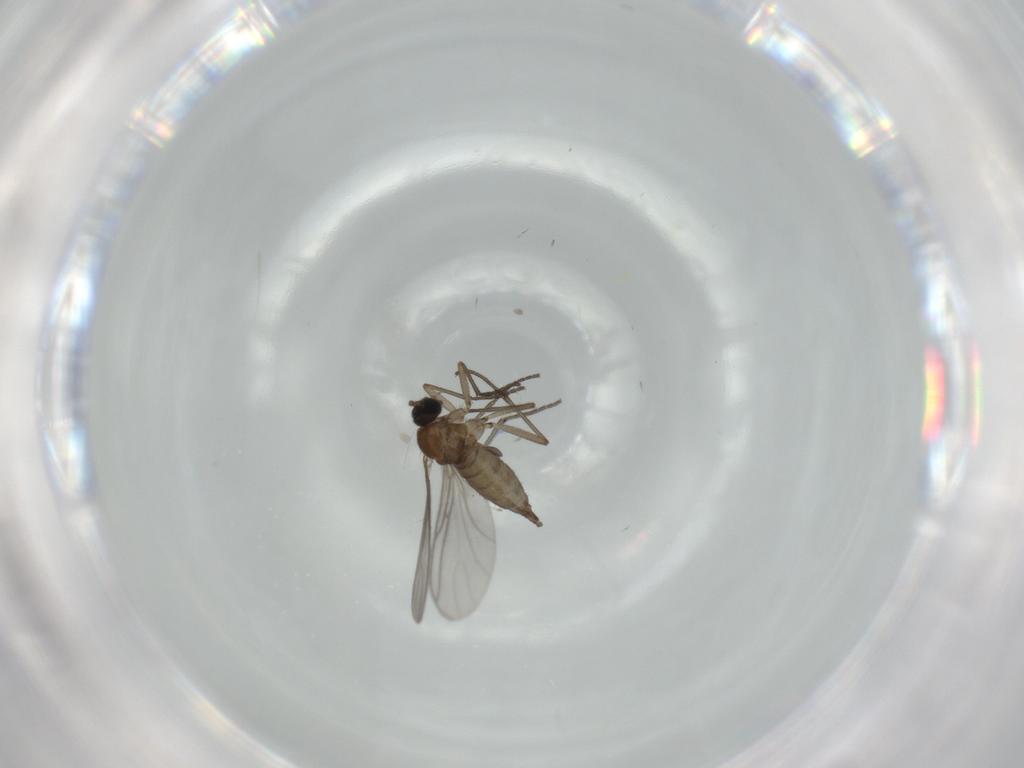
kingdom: Animalia
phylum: Arthropoda
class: Insecta
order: Diptera
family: Sciaridae
